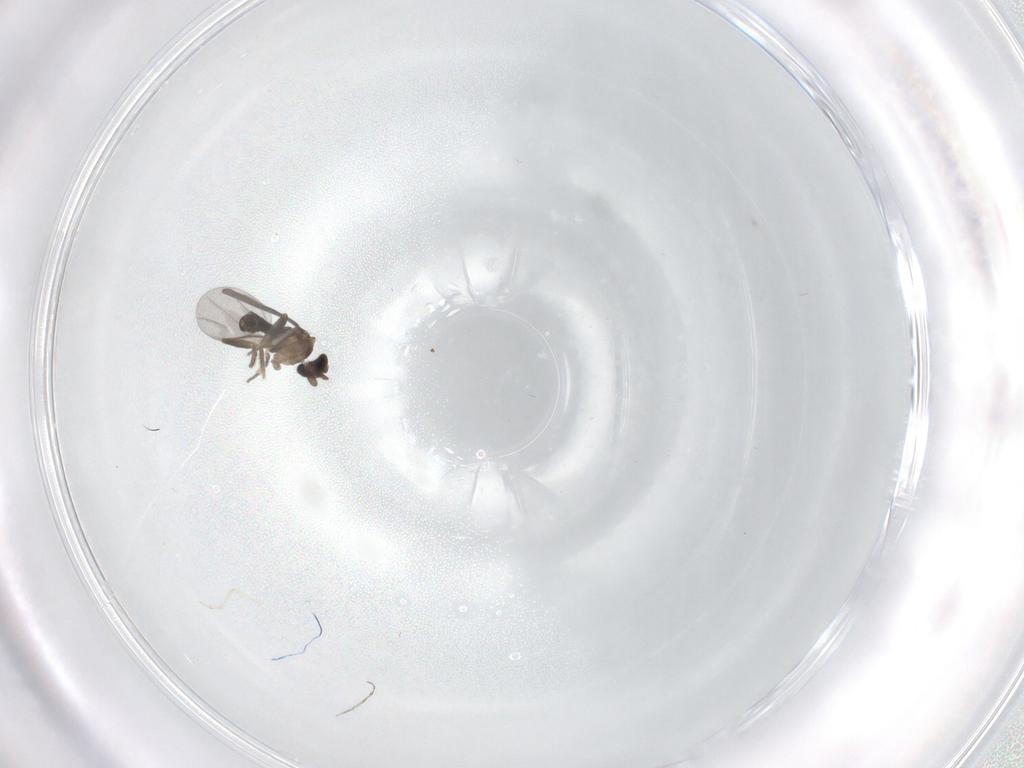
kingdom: Animalia
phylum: Arthropoda
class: Insecta
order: Diptera
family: Cecidomyiidae
